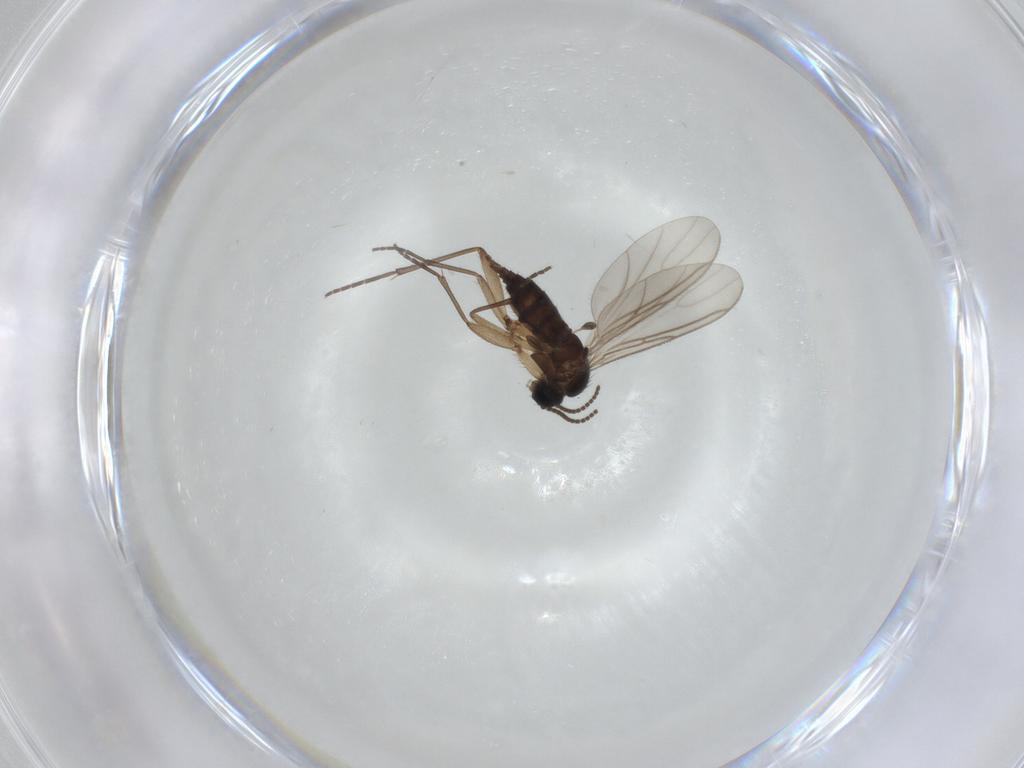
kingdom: Animalia
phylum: Arthropoda
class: Insecta
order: Diptera
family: Sciaridae
